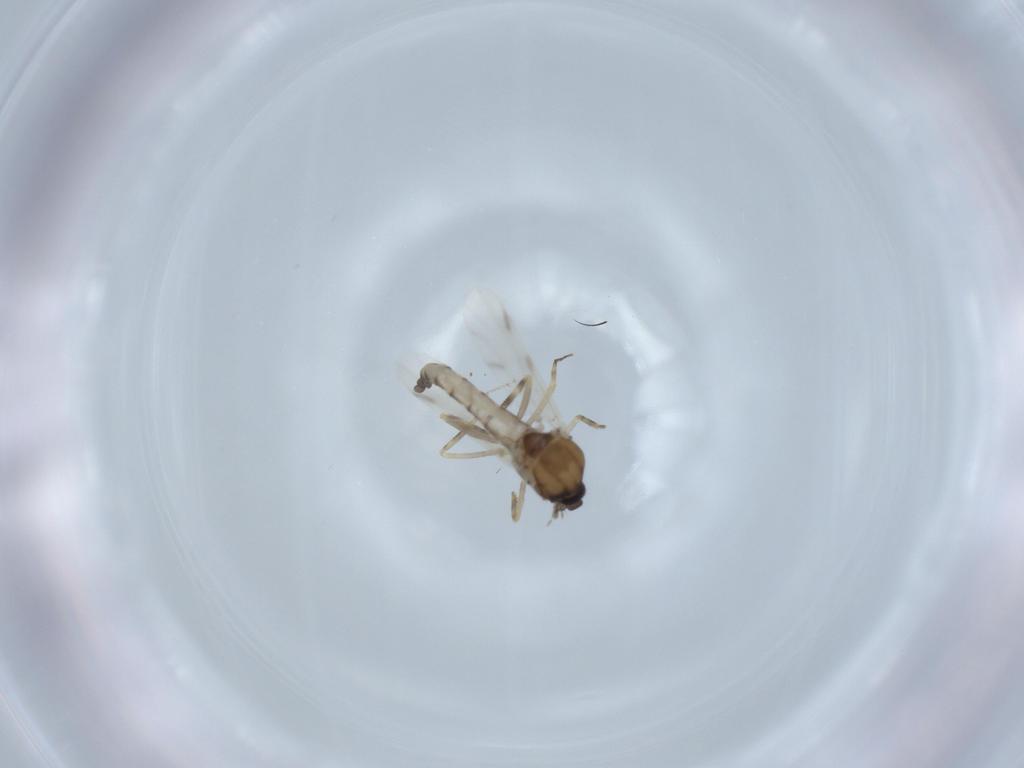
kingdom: Animalia
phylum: Arthropoda
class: Insecta
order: Diptera
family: Ceratopogonidae
